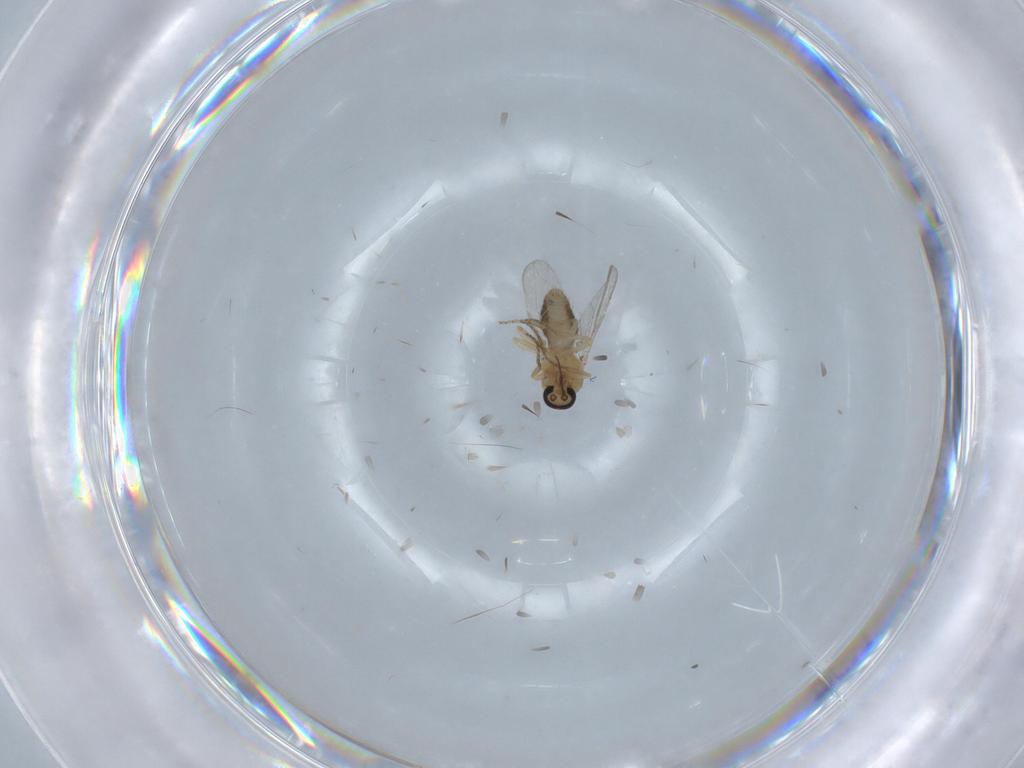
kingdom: Animalia
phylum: Arthropoda
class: Insecta
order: Diptera
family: Ceratopogonidae
